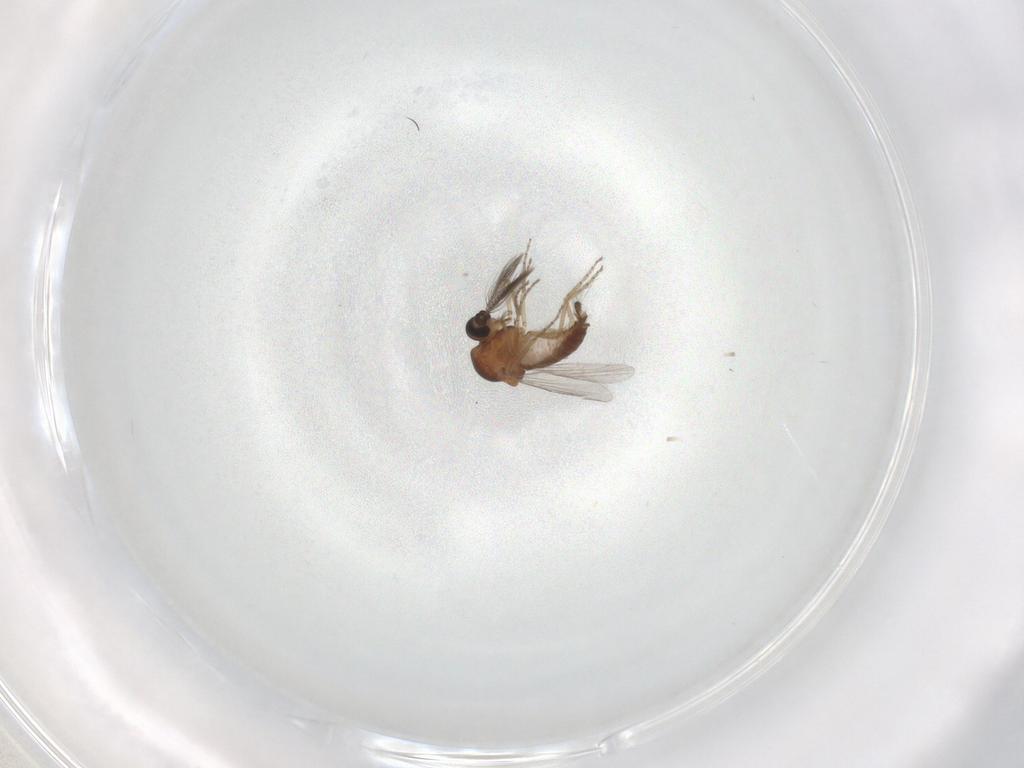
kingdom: Animalia
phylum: Arthropoda
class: Insecta
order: Diptera
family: Ceratopogonidae
